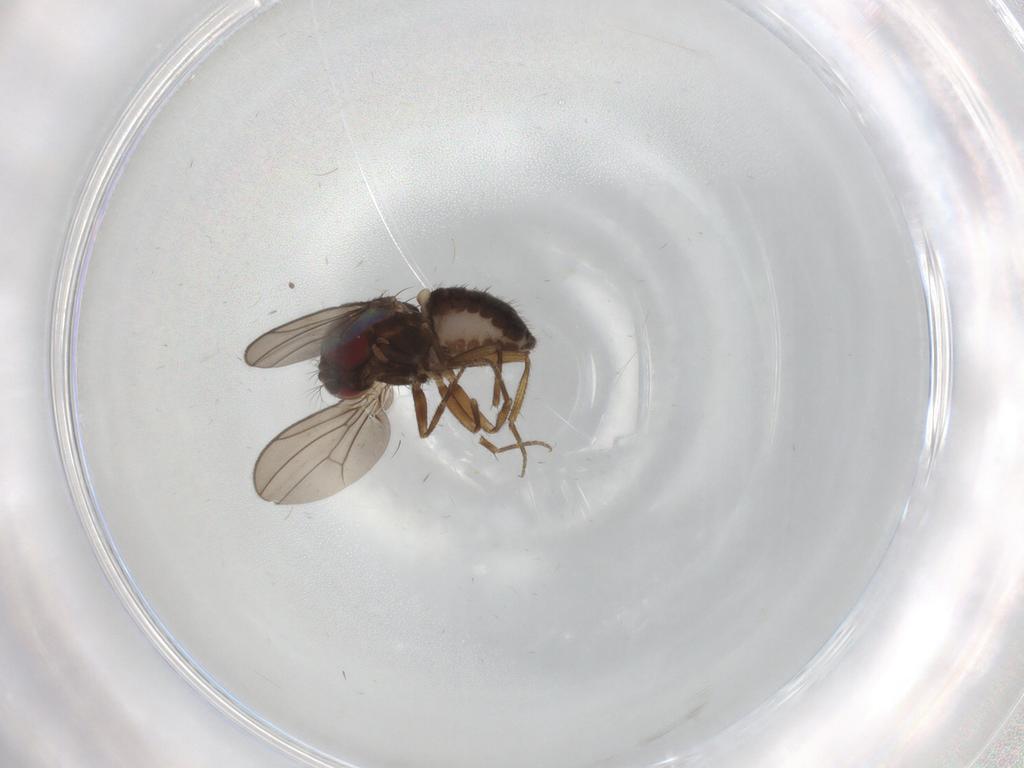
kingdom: Animalia
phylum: Arthropoda
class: Insecta
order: Diptera
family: Drosophilidae
